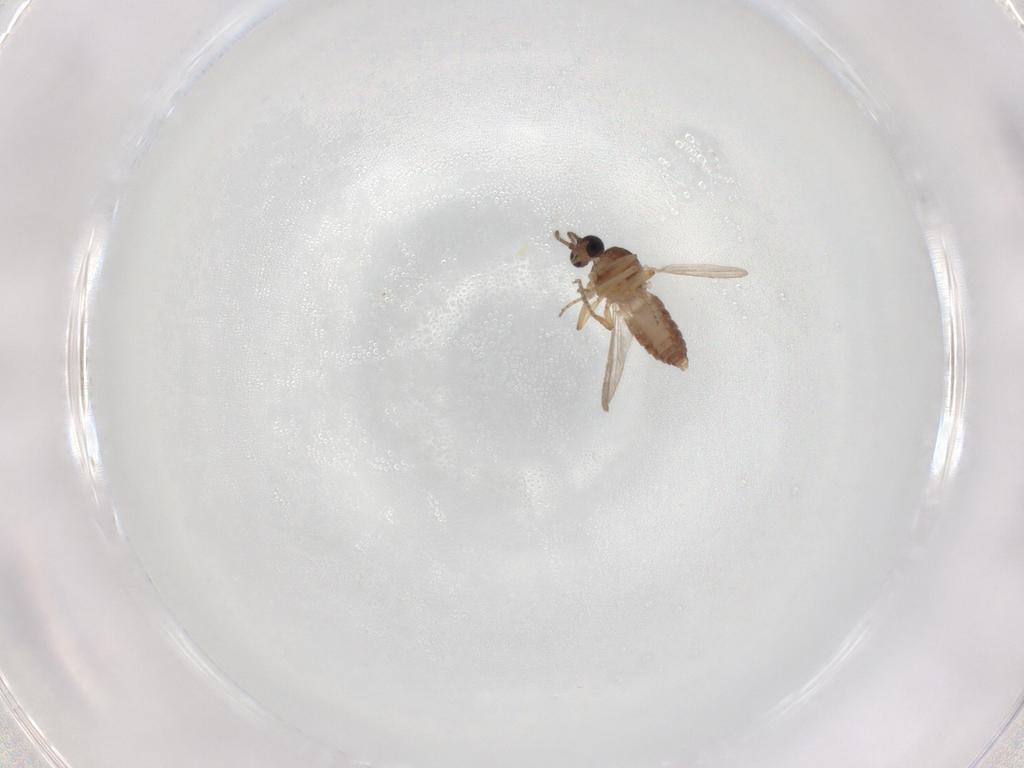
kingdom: Animalia
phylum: Arthropoda
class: Insecta
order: Diptera
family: Ceratopogonidae
